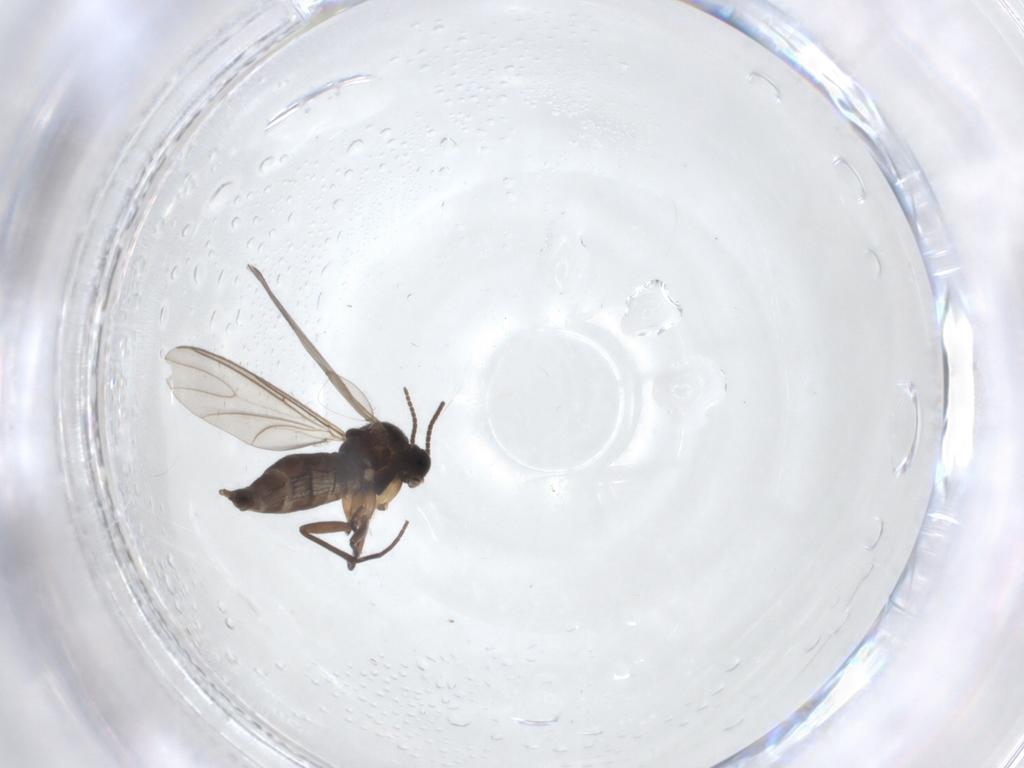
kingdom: Animalia
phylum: Arthropoda
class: Insecta
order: Diptera
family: Sciaridae
